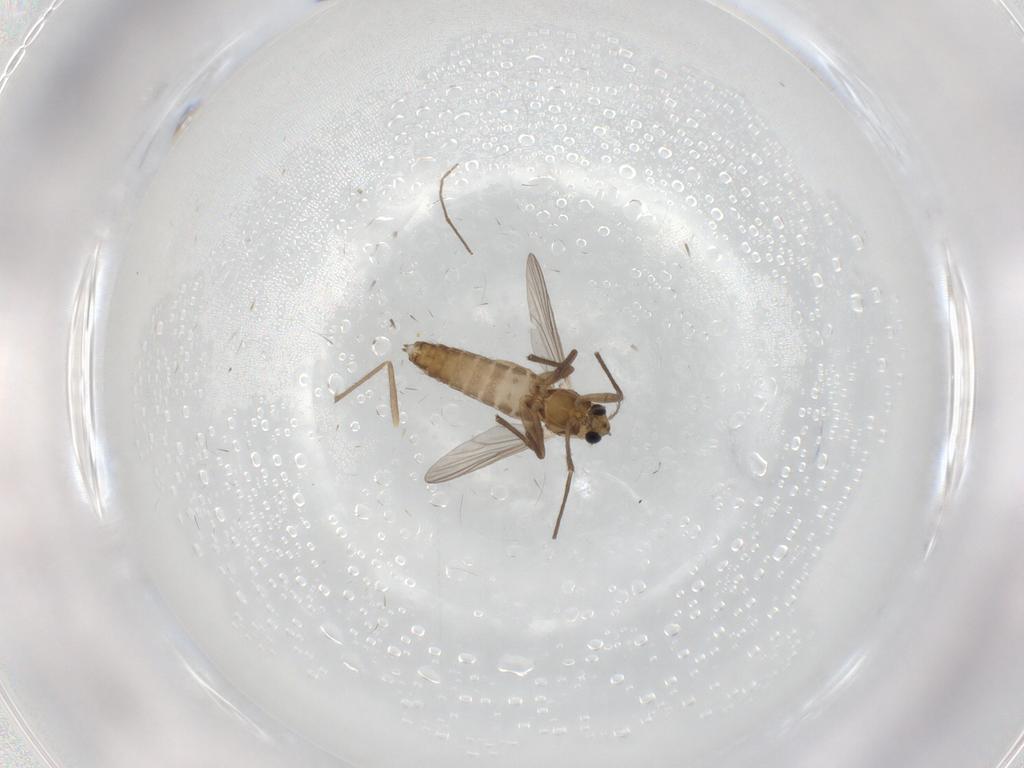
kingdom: Animalia
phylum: Arthropoda
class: Insecta
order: Diptera
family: Chironomidae
